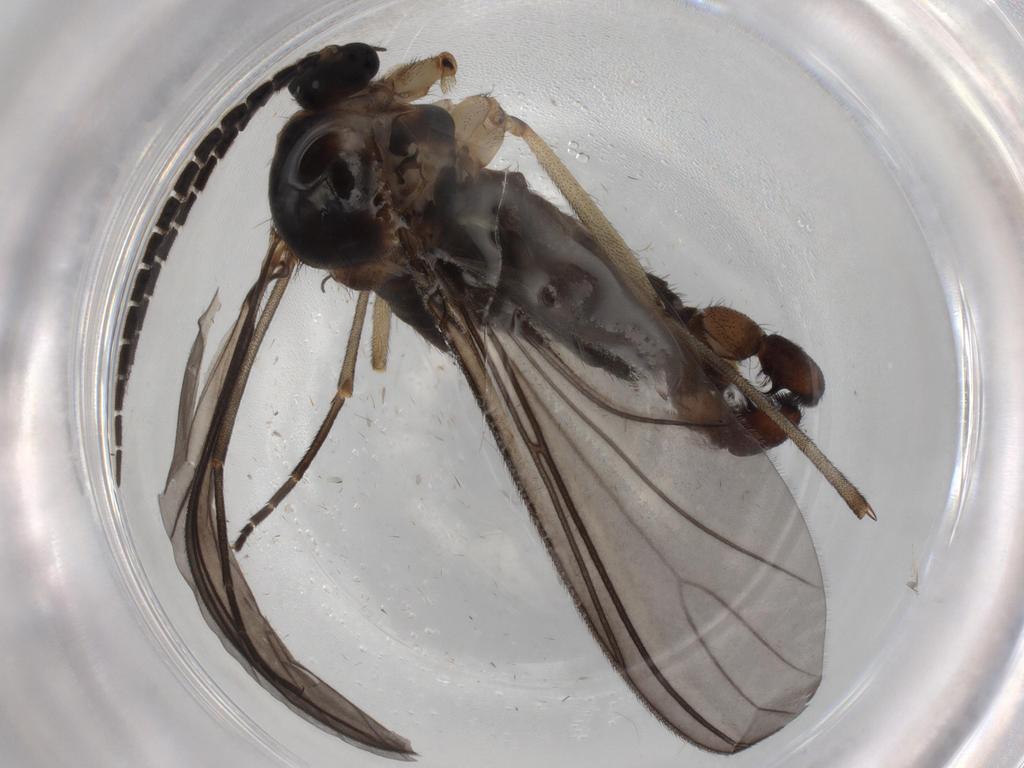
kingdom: Animalia
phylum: Arthropoda
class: Insecta
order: Diptera
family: Sciaridae
